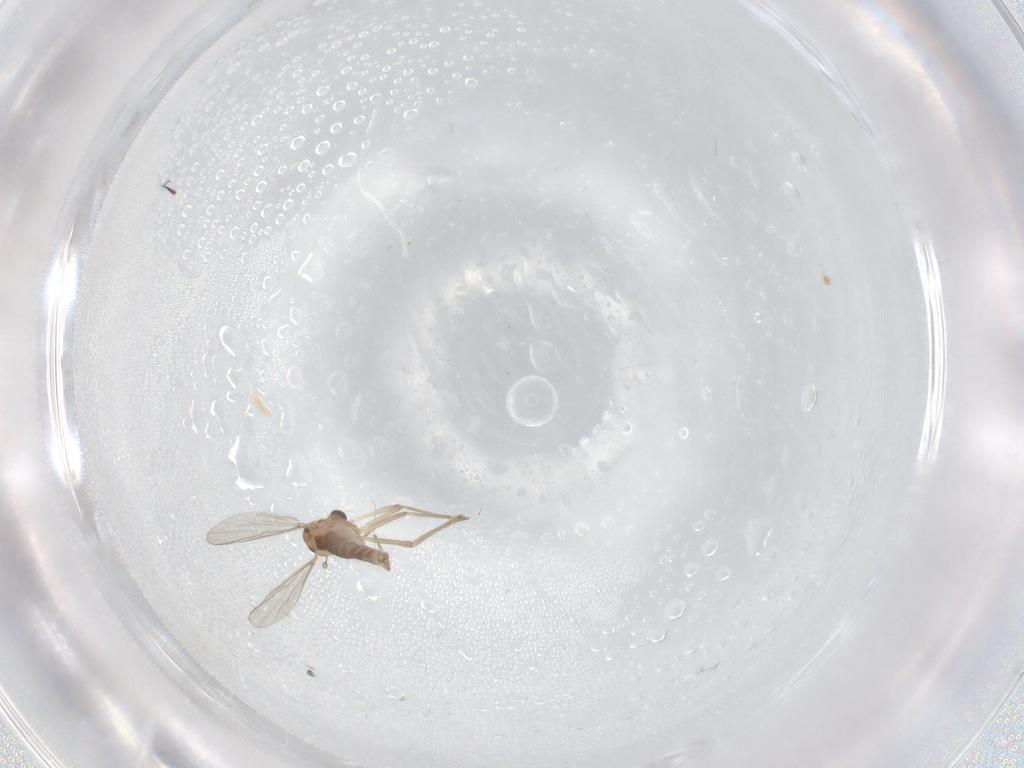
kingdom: Animalia
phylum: Arthropoda
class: Insecta
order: Diptera
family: Chironomidae
